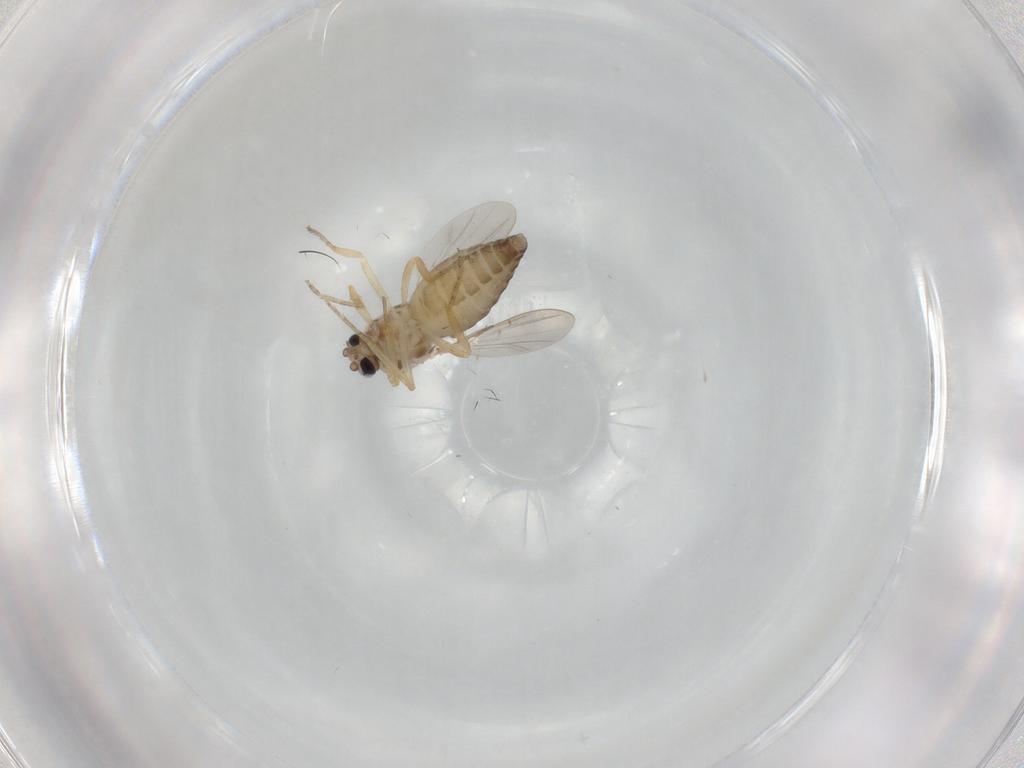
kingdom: Animalia
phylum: Arthropoda
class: Insecta
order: Diptera
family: Ceratopogonidae
